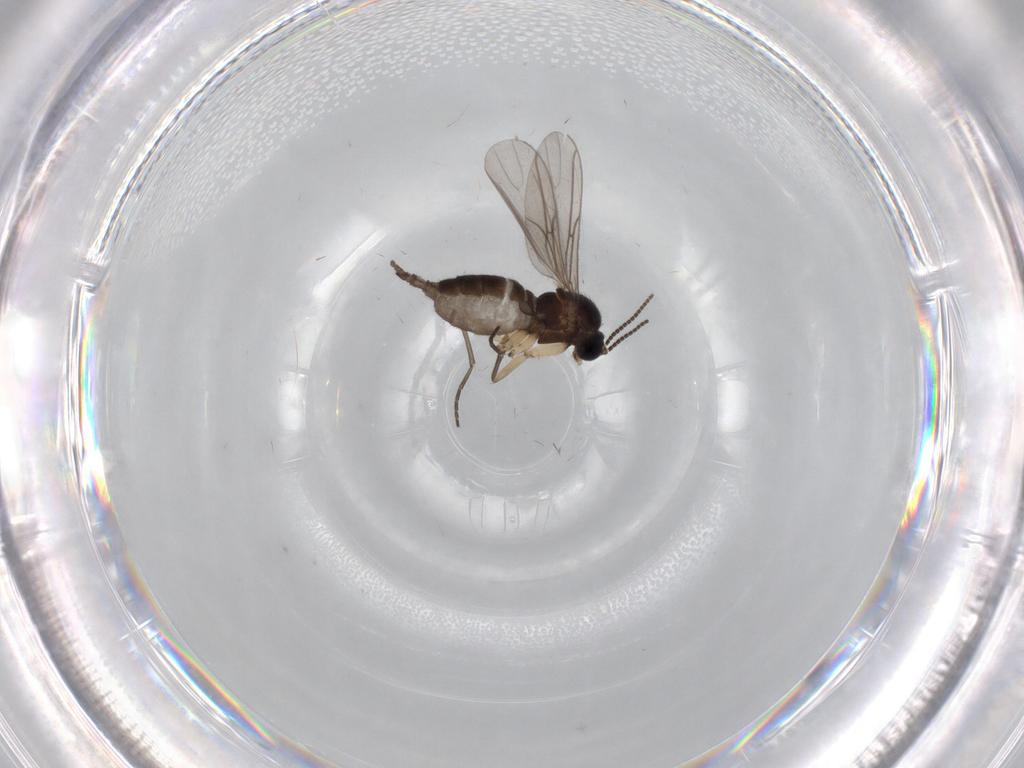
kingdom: Animalia
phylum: Arthropoda
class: Insecta
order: Diptera
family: Sciaridae
